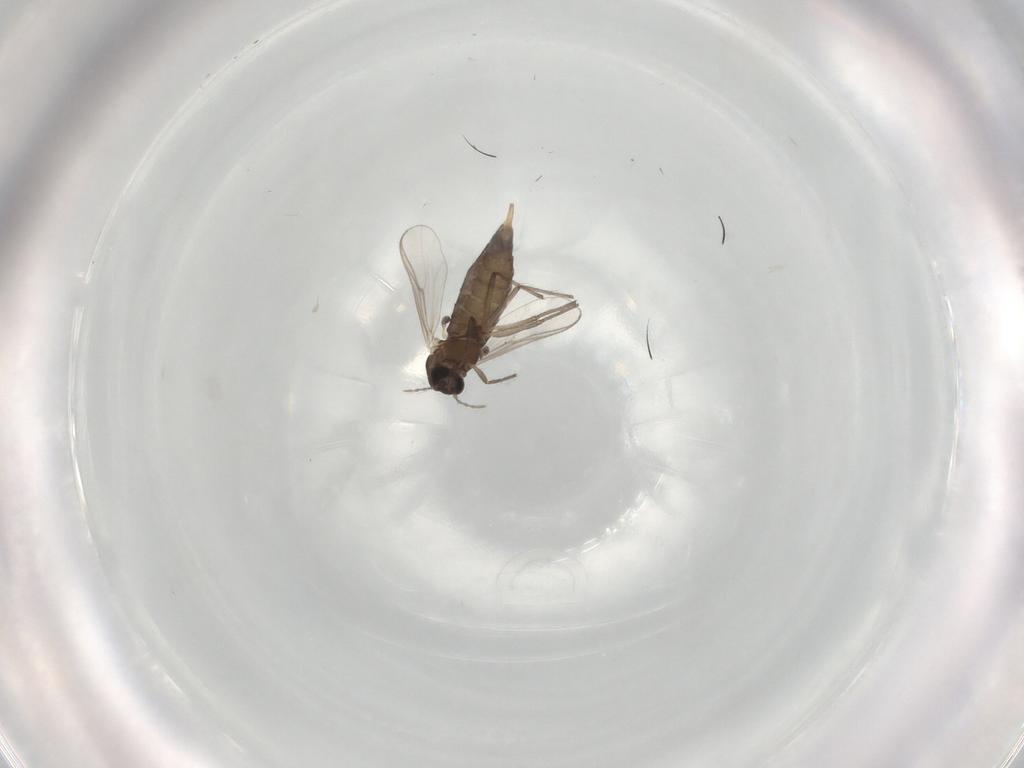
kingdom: Animalia
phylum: Arthropoda
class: Insecta
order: Diptera
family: Chironomidae
